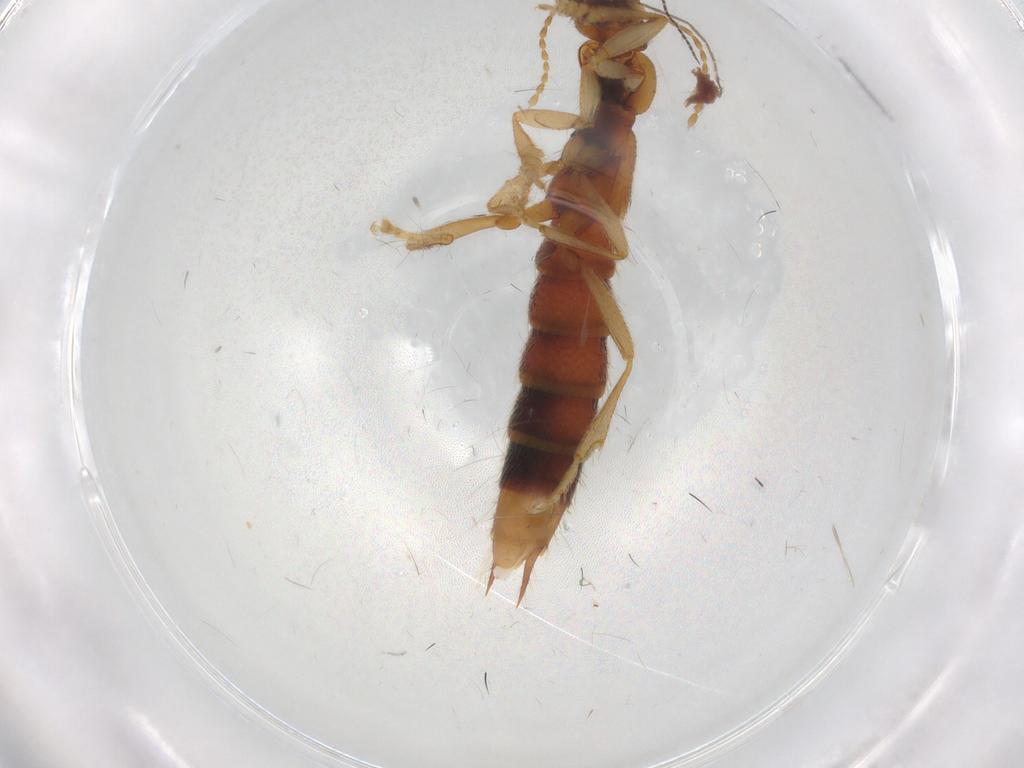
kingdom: Animalia
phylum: Arthropoda
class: Insecta
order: Coleoptera
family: Staphylinidae
